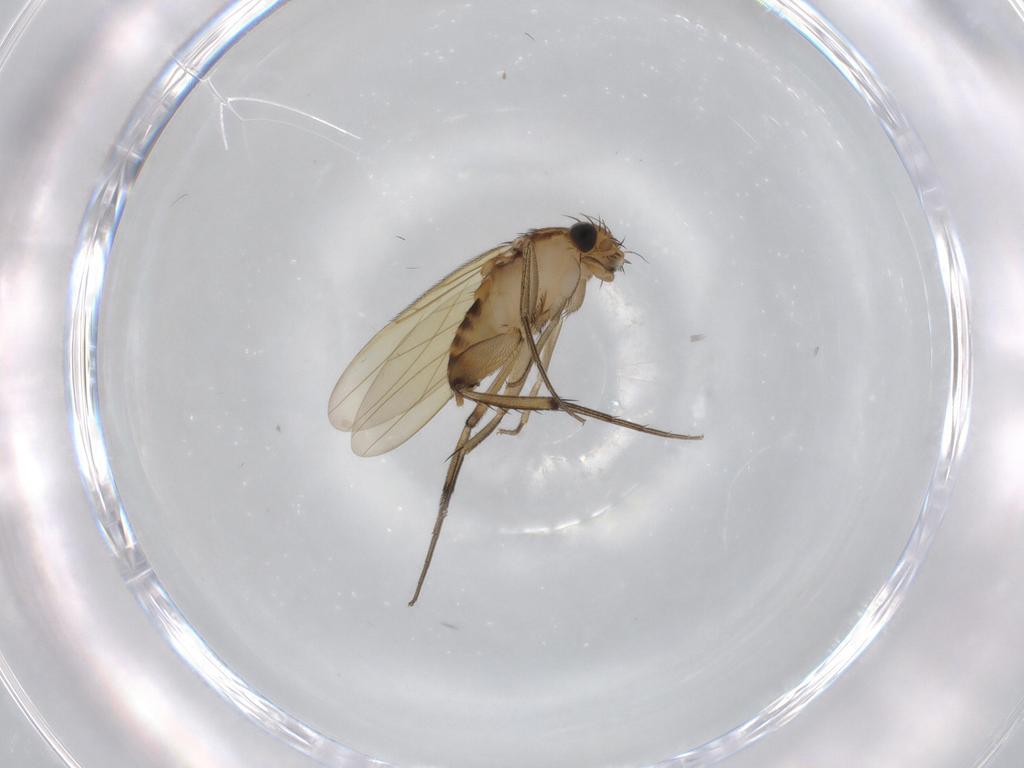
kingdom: Animalia
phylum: Arthropoda
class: Insecta
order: Diptera
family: Phoridae
